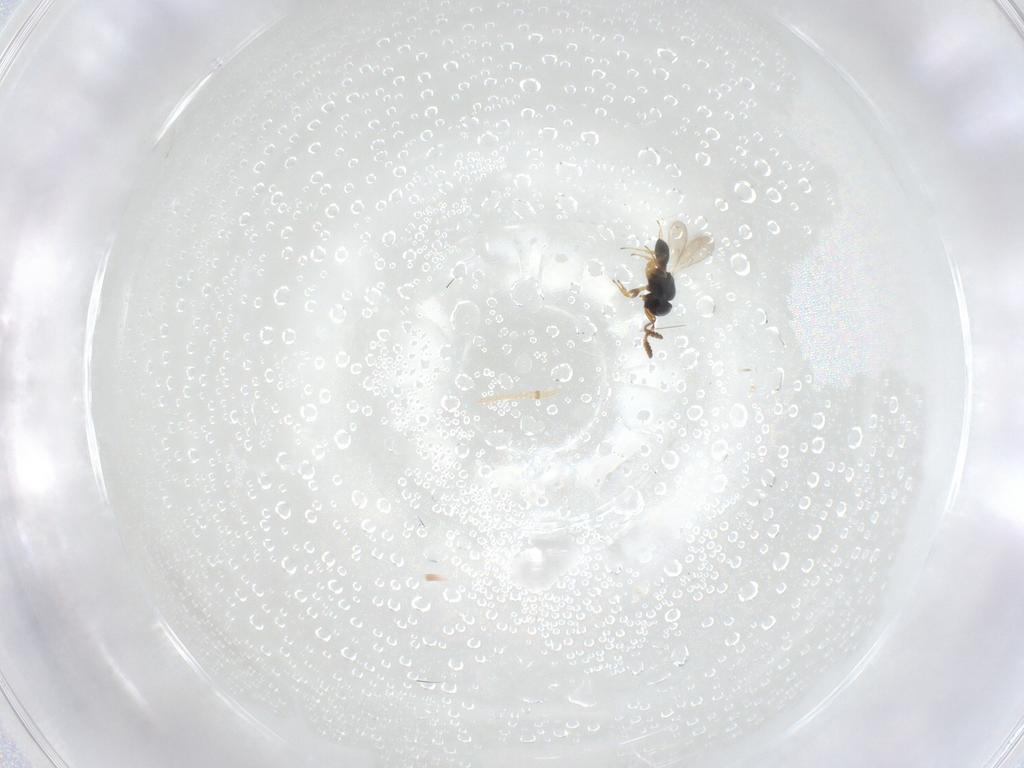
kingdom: Animalia
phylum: Arthropoda
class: Insecta
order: Hymenoptera
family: Scelionidae
